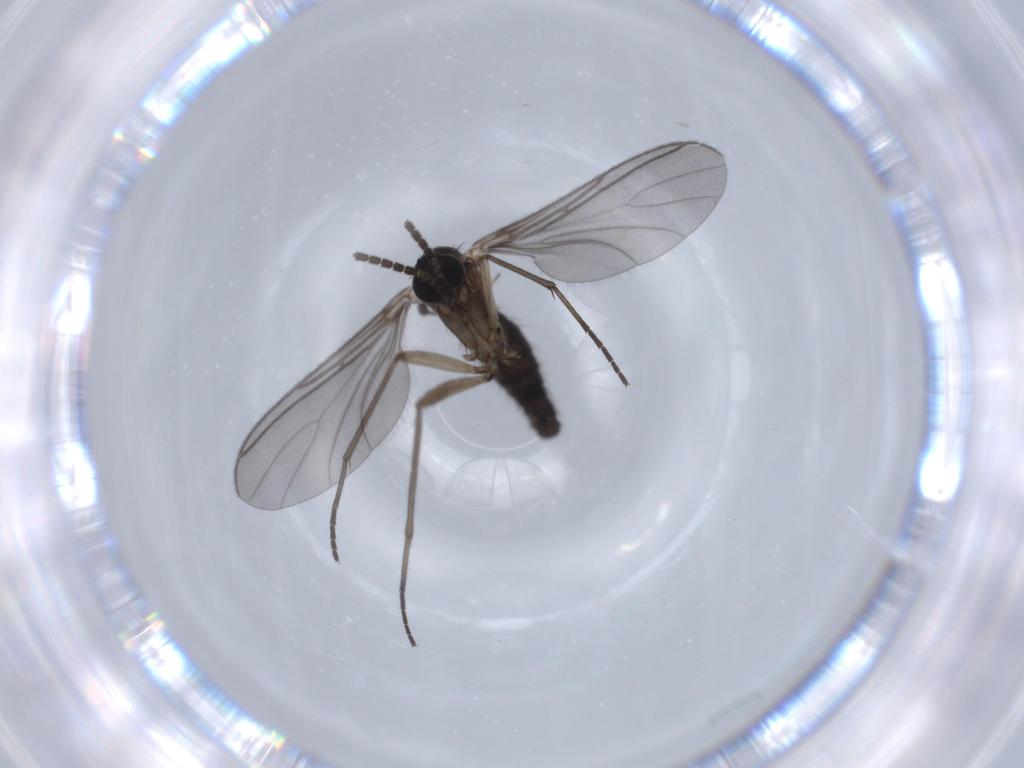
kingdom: Animalia
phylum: Arthropoda
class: Insecta
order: Diptera
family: Sciaridae
